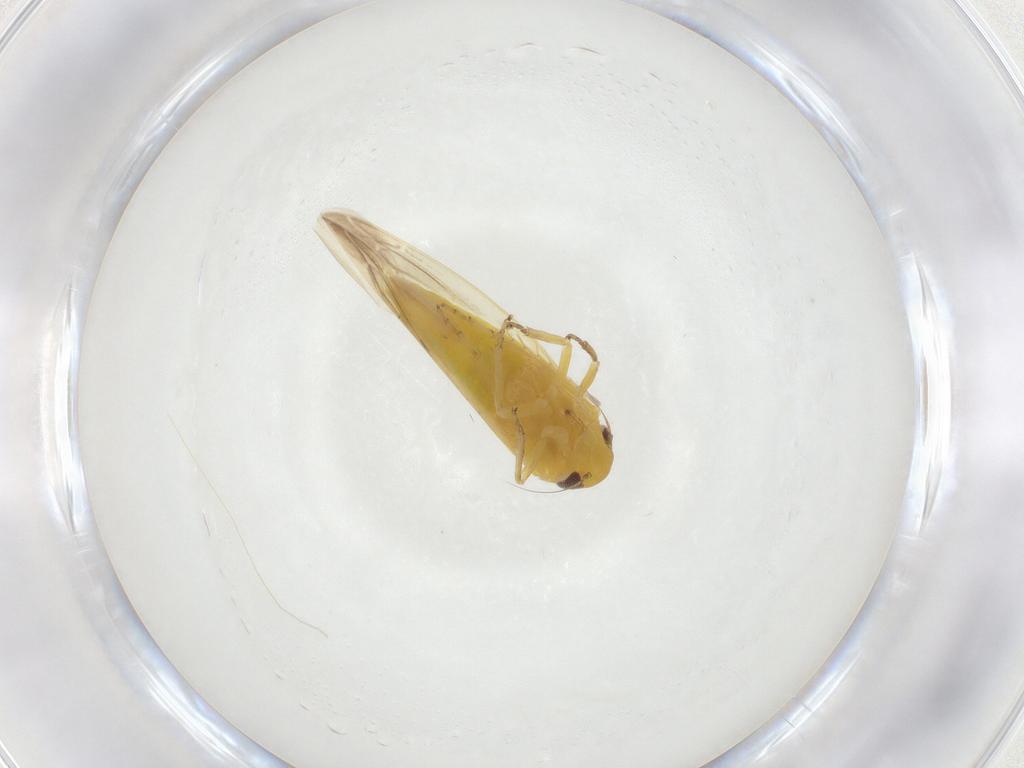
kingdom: Animalia
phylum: Arthropoda
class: Insecta
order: Hemiptera
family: Cicadellidae
